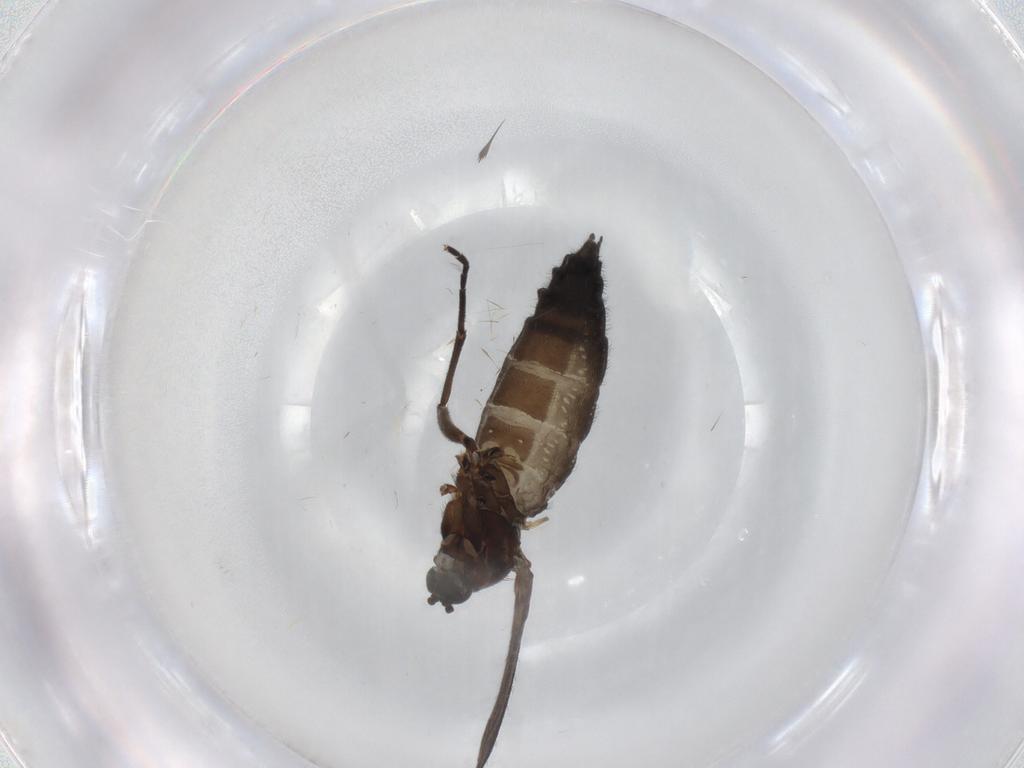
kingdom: Animalia
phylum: Arthropoda
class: Insecta
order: Diptera
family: Sciaridae
